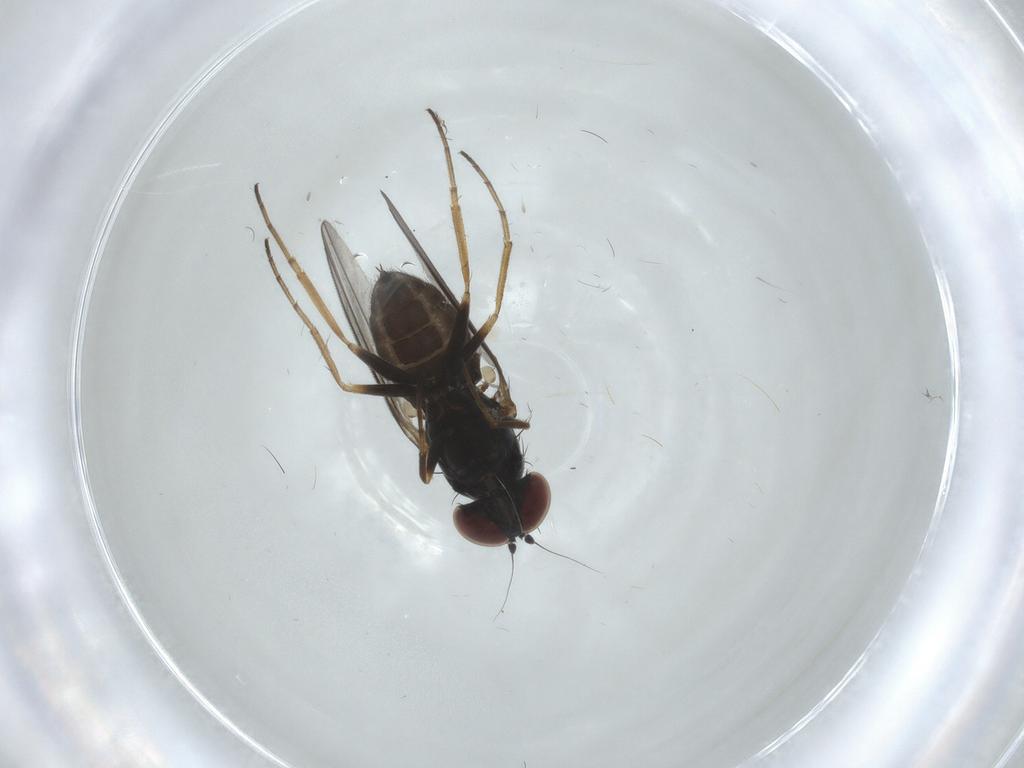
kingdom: Animalia
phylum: Arthropoda
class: Insecta
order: Diptera
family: Dolichopodidae
